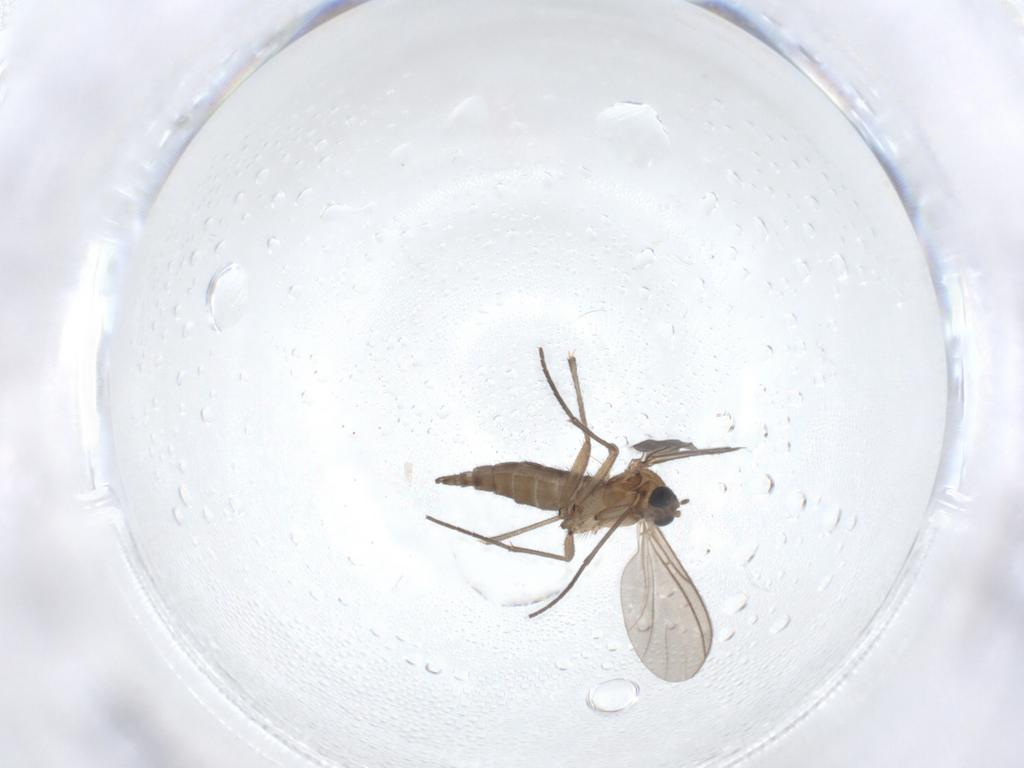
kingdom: Animalia
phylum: Arthropoda
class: Insecta
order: Diptera
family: Sciaridae
